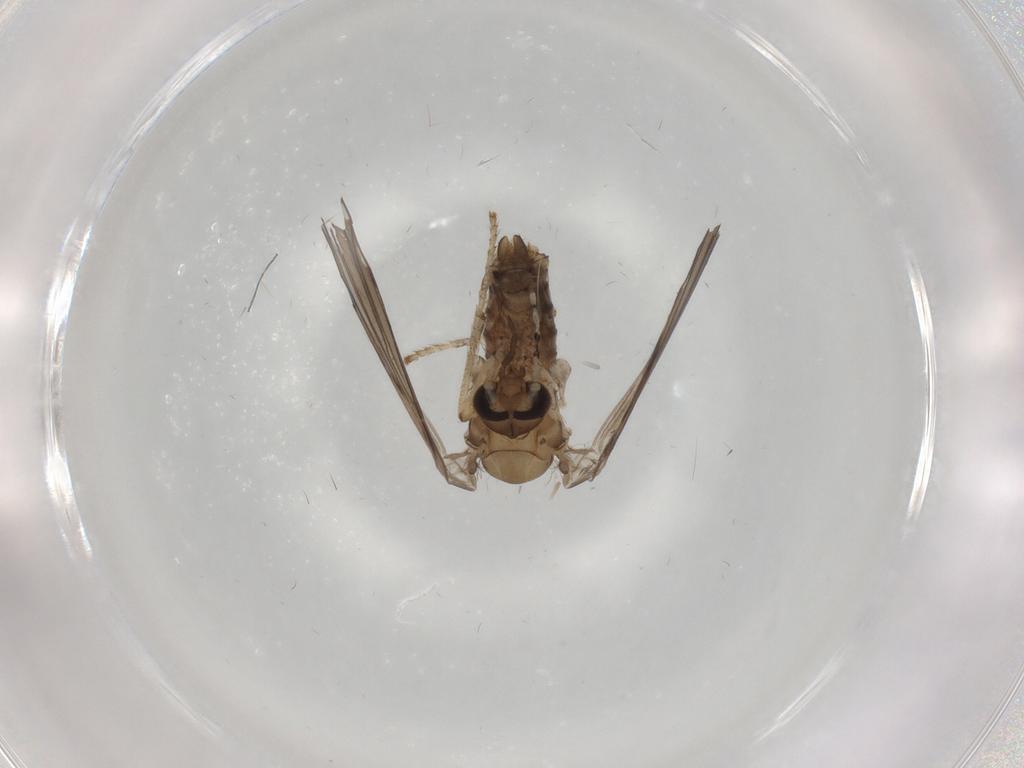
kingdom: Animalia
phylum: Arthropoda
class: Insecta
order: Diptera
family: Psychodidae
